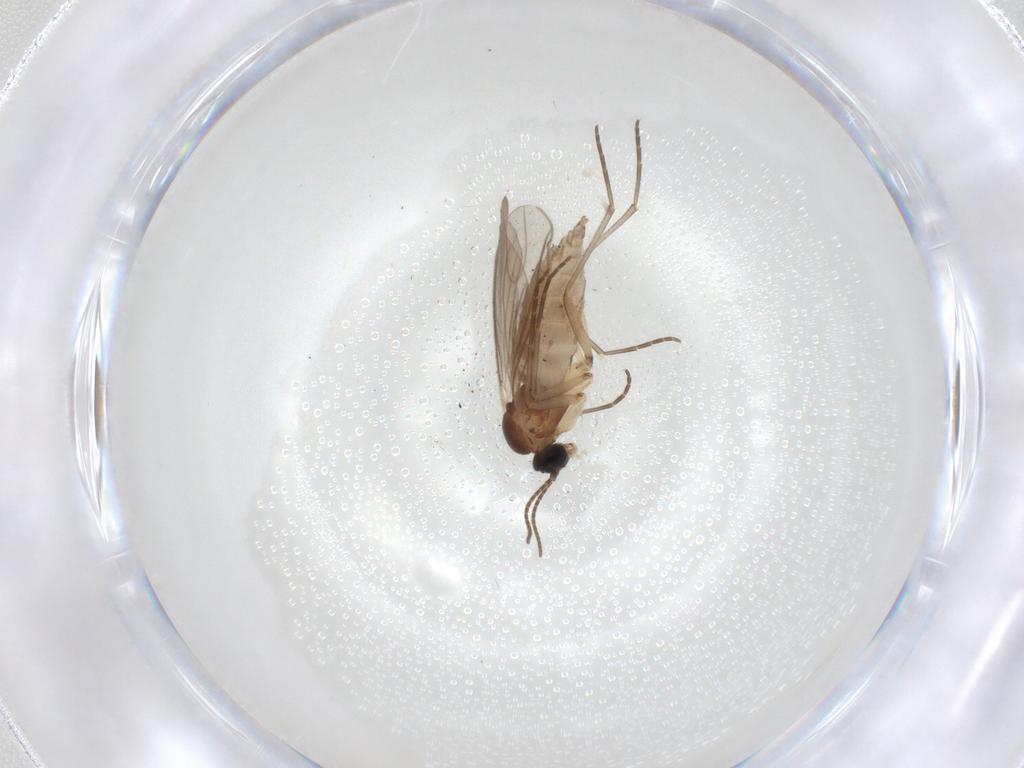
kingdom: Animalia
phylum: Arthropoda
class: Insecta
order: Diptera
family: Sciaridae
